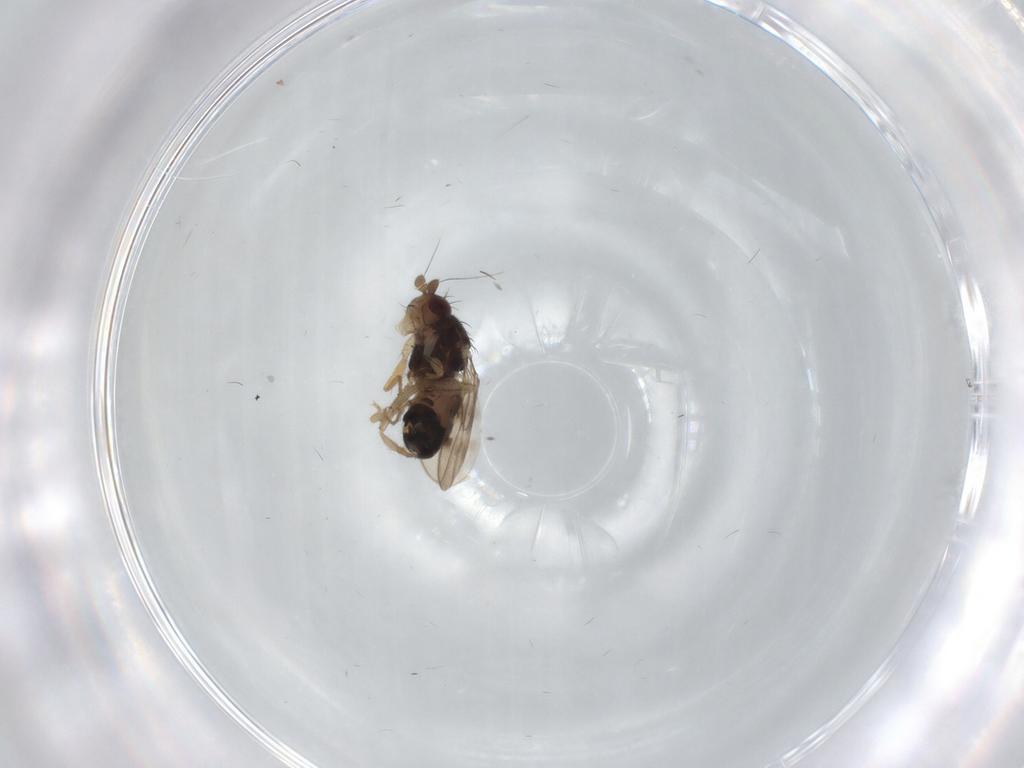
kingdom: Animalia
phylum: Arthropoda
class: Insecta
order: Diptera
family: Sphaeroceridae
